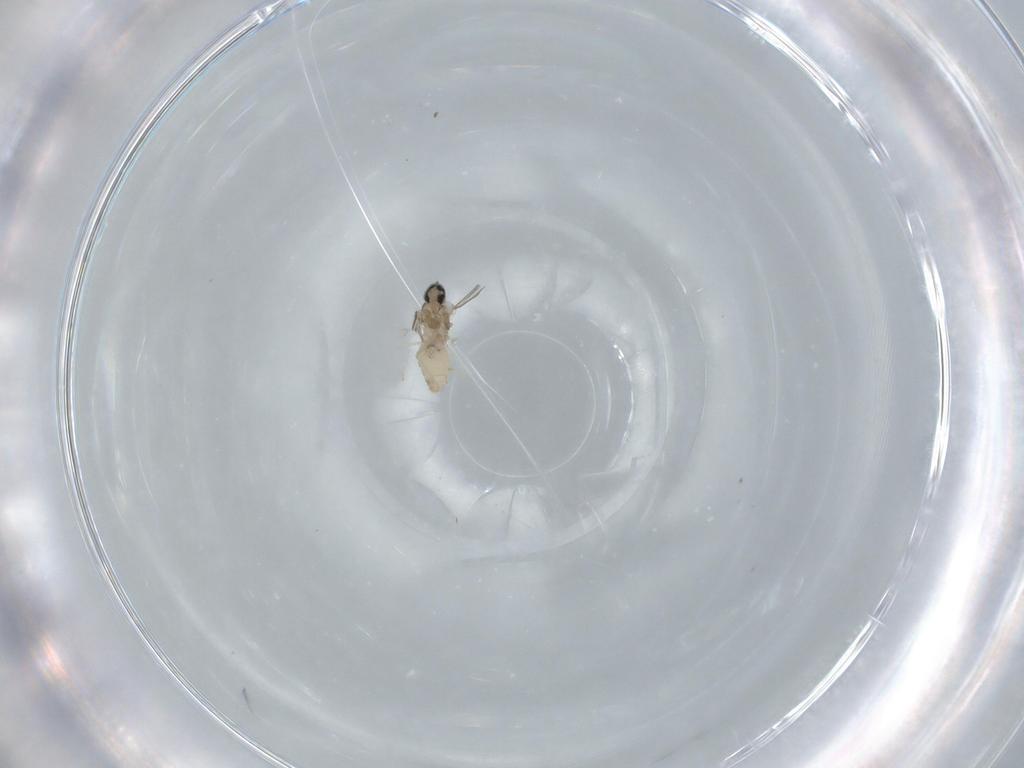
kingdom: Animalia
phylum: Arthropoda
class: Insecta
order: Diptera
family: Cecidomyiidae
